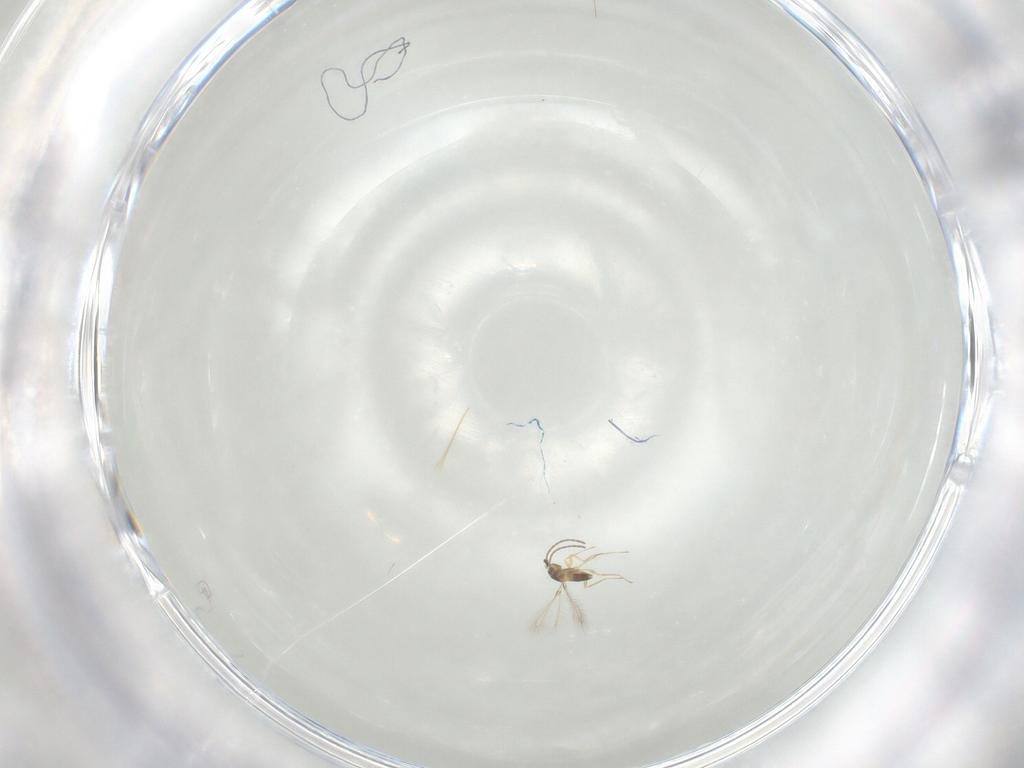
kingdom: Animalia
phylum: Arthropoda
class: Insecta
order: Hymenoptera
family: Mymaridae
